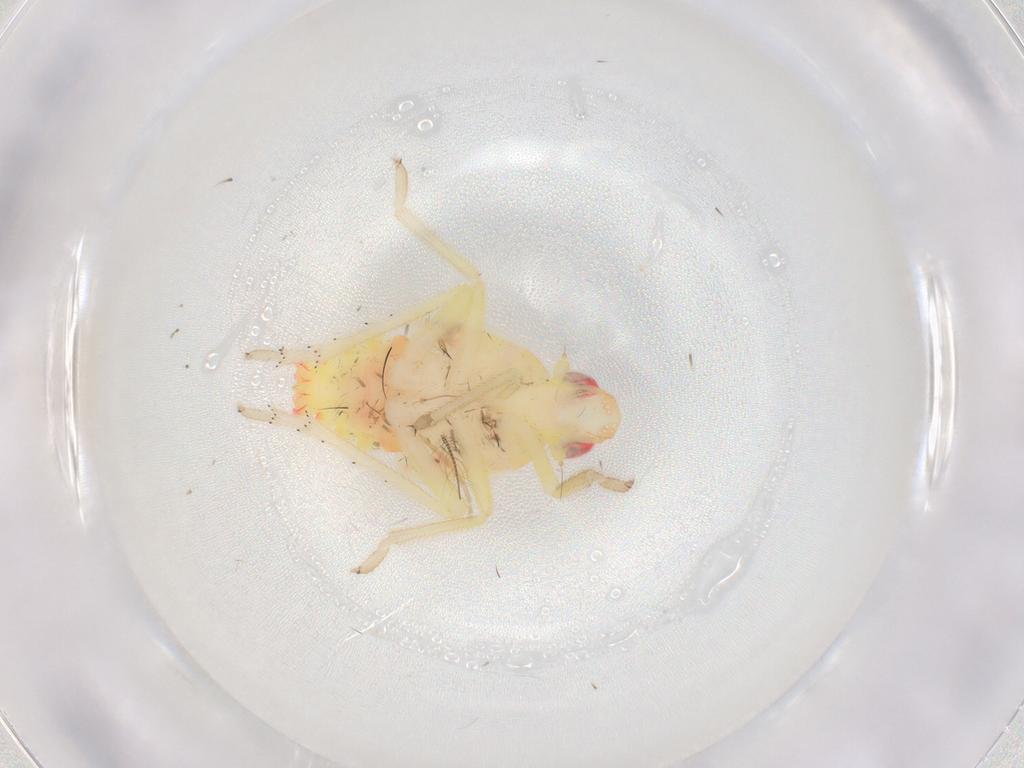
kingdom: Animalia
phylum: Arthropoda
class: Insecta
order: Hemiptera
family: Tropiduchidae
